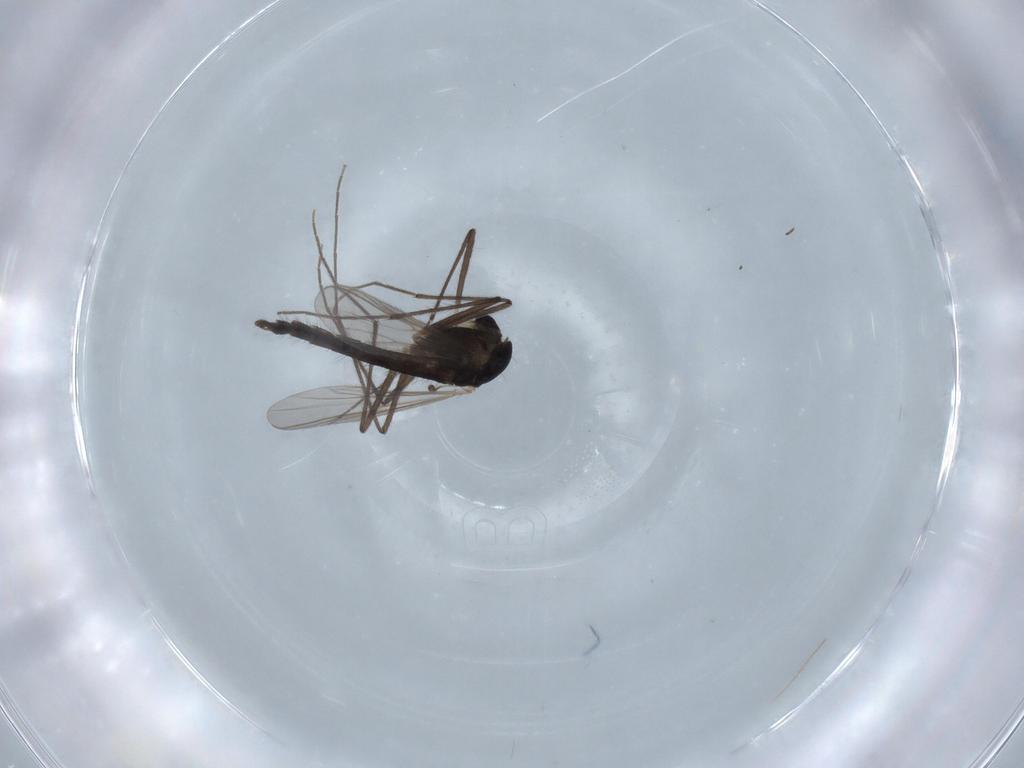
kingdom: Animalia
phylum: Arthropoda
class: Insecta
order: Diptera
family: Chironomidae
